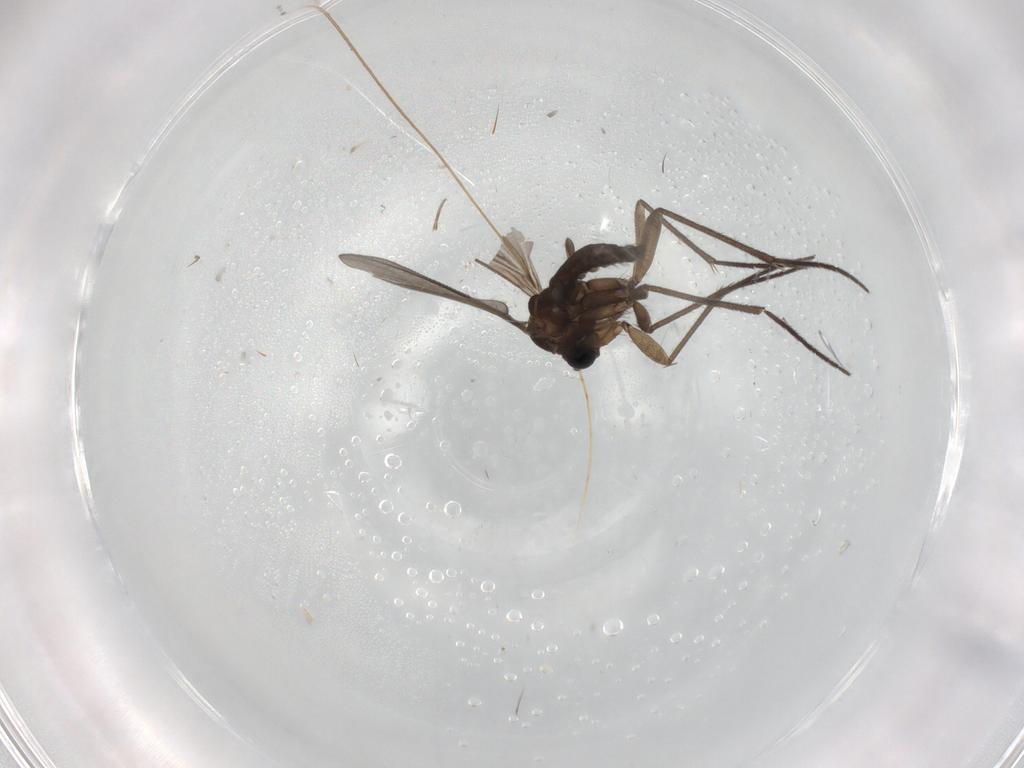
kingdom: Animalia
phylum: Arthropoda
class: Insecta
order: Diptera
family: Sciaridae
